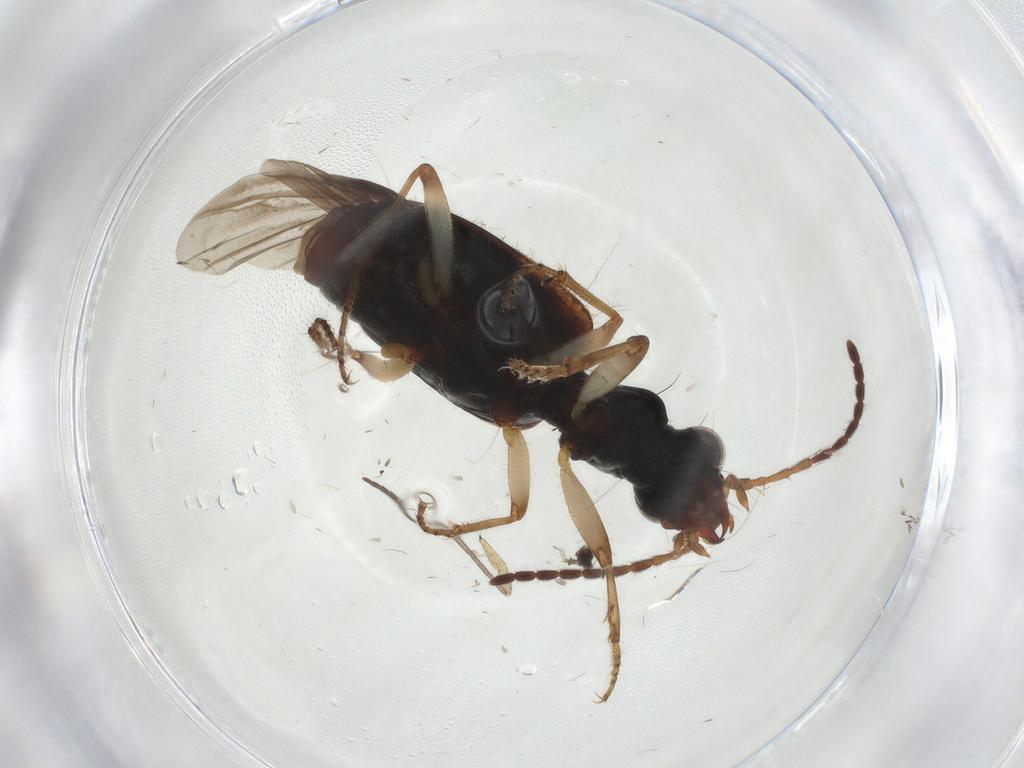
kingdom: Animalia
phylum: Arthropoda
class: Insecta
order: Coleoptera
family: Carabidae
